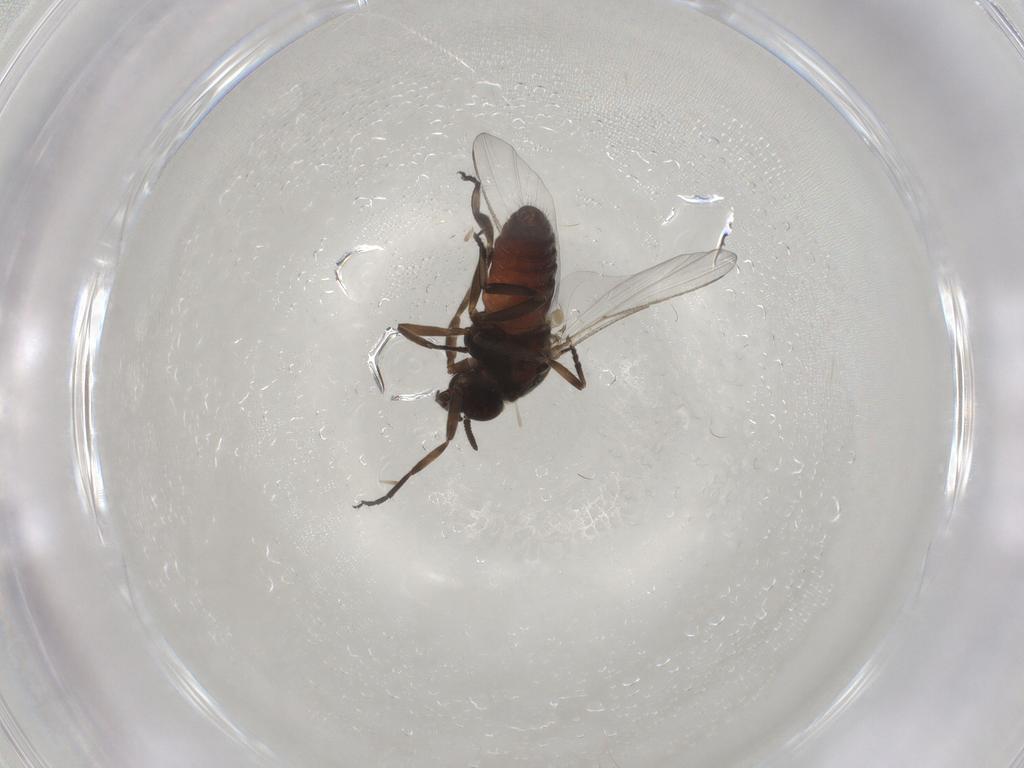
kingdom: Animalia
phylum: Arthropoda
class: Insecta
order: Diptera
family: Simuliidae
